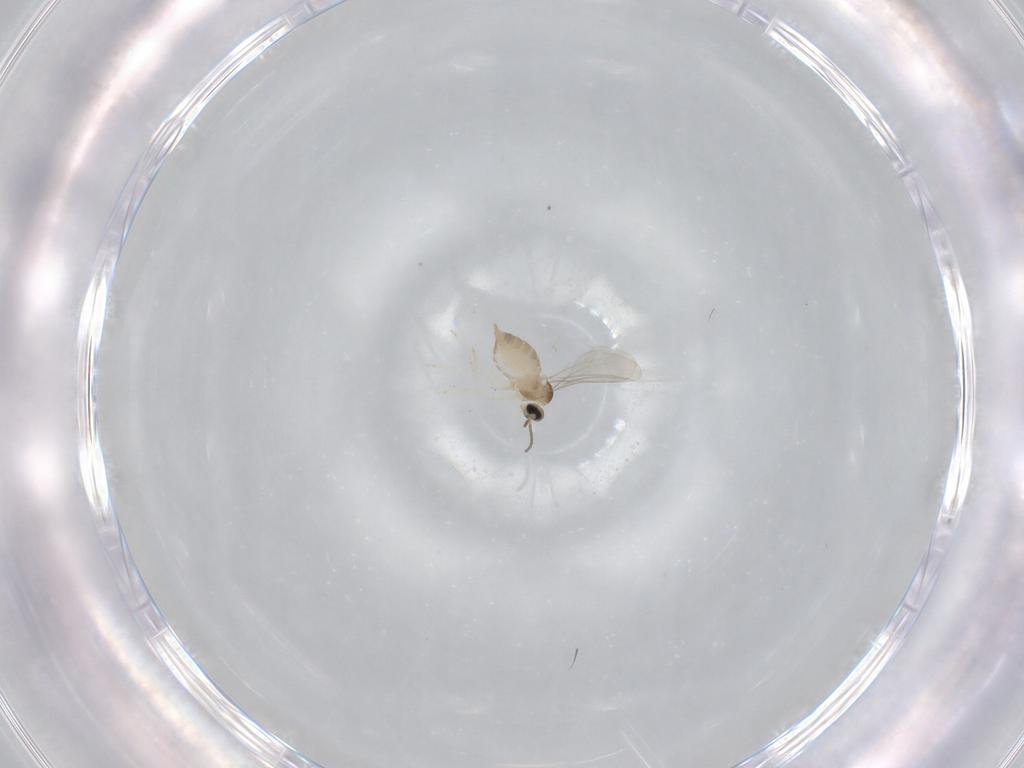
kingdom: Animalia
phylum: Arthropoda
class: Insecta
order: Diptera
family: Cecidomyiidae
